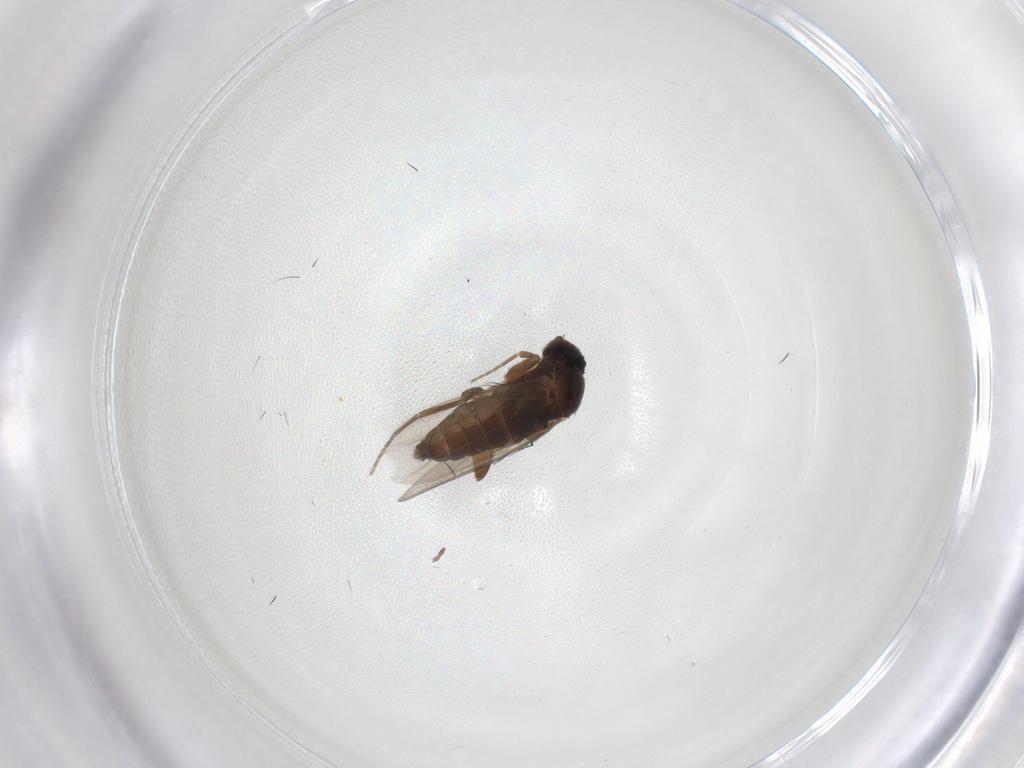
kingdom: Animalia
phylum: Arthropoda
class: Insecta
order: Diptera
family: Phoridae
